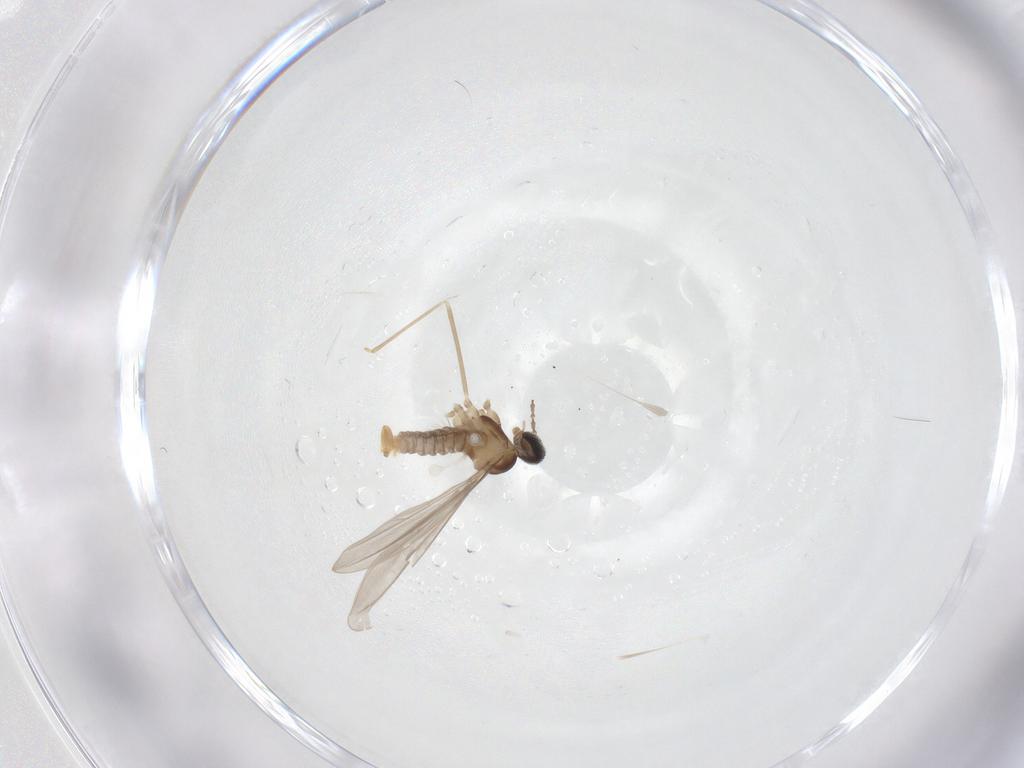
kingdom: Animalia
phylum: Arthropoda
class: Insecta
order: Diptera
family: Cecidomyiidae
